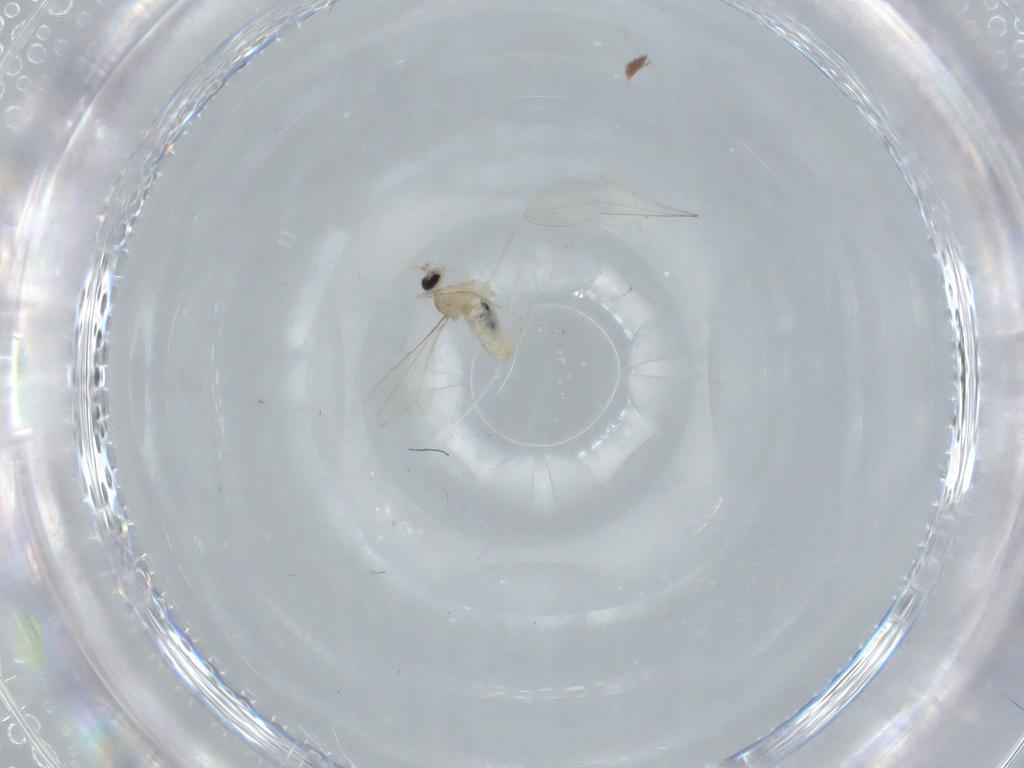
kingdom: Animalia
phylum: Arthropoda
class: Insecta
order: Diptera
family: Cecidomyiidae
